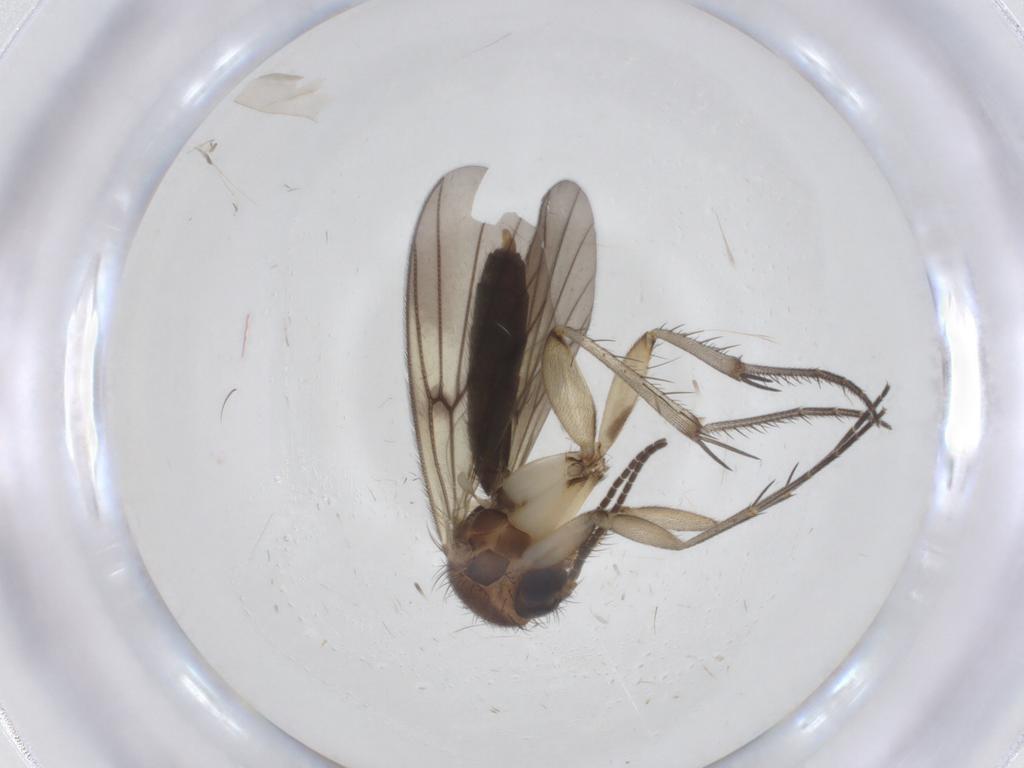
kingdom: Animalia
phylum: Arthropoda
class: Insecta
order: Diptera
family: Mycetophilidae
